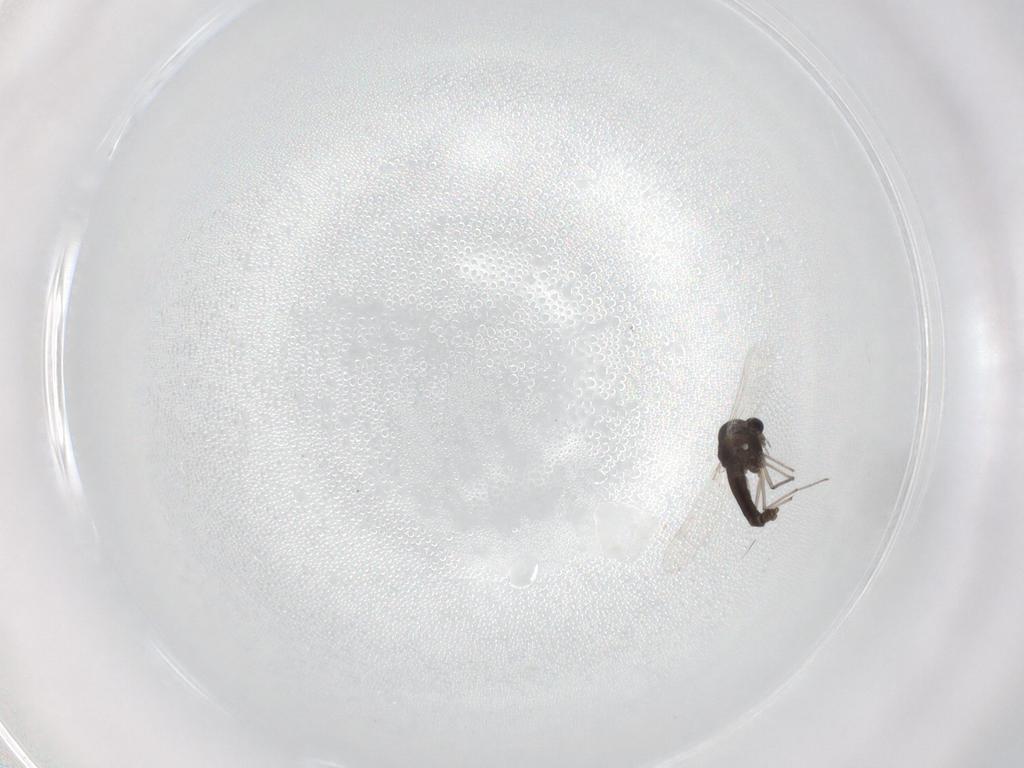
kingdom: Animalia
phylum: Arthropoda
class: Insecta
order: Diptera
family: Chironomidae
